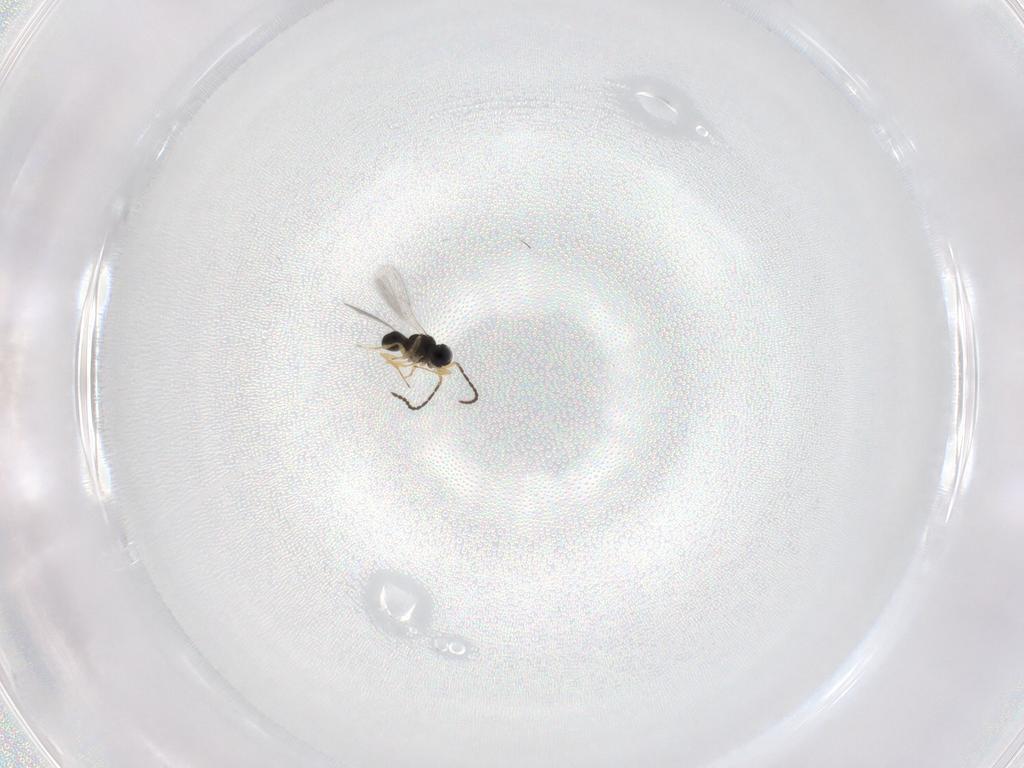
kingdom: Animalia
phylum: Arthropoda
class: Insecta
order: Hymenoptera
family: Scelionidae
